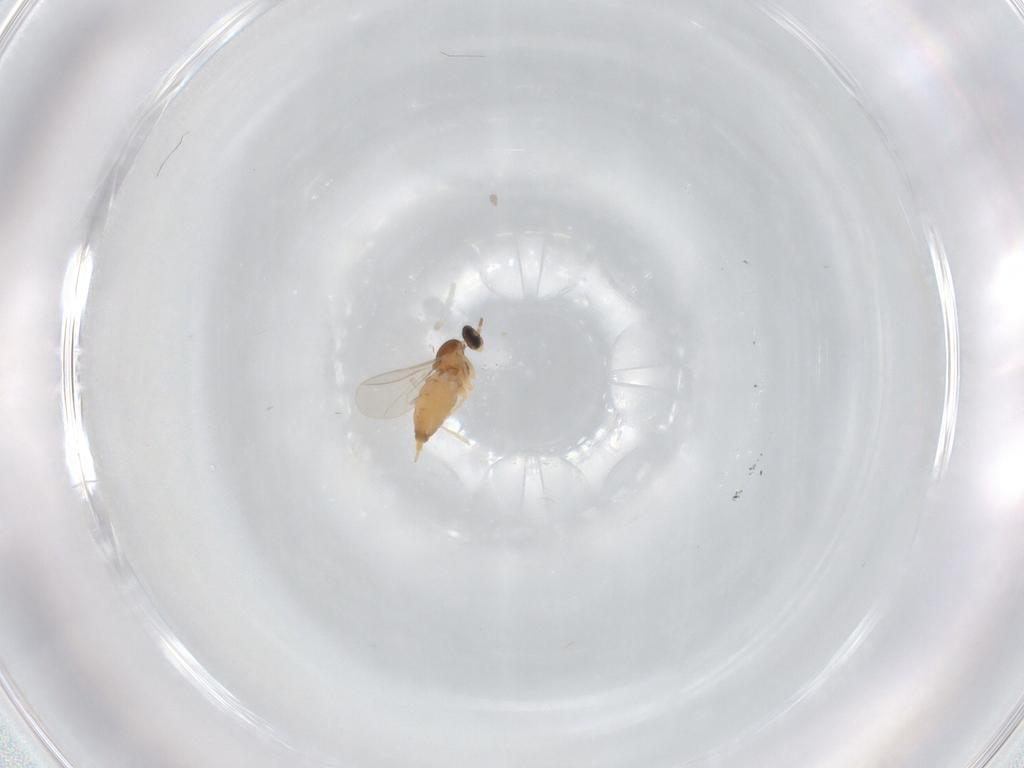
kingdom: Animalia
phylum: Arthropoda
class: Insecta
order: Diptera
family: Cecidomyiidae
